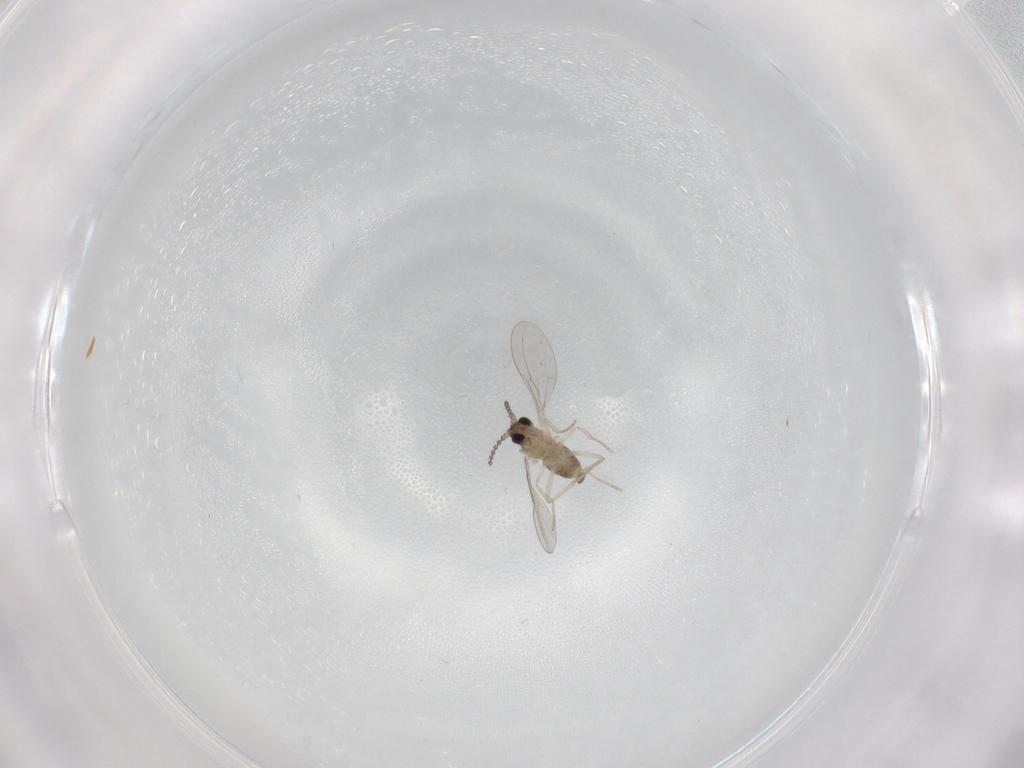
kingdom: Animalia
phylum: Arthropoda
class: Insecta
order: Diptera
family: Cecidomyiidae
